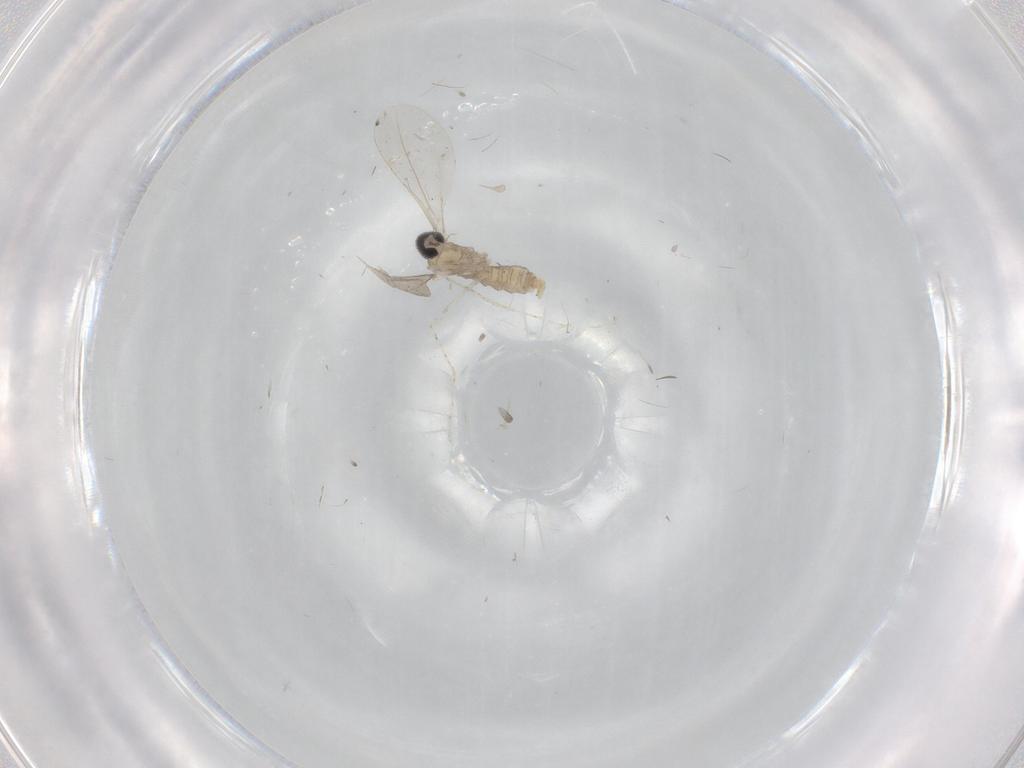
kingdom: Animalia
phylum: Arthropoda
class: Insecta
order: Diptera
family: Cecidomyiidae
